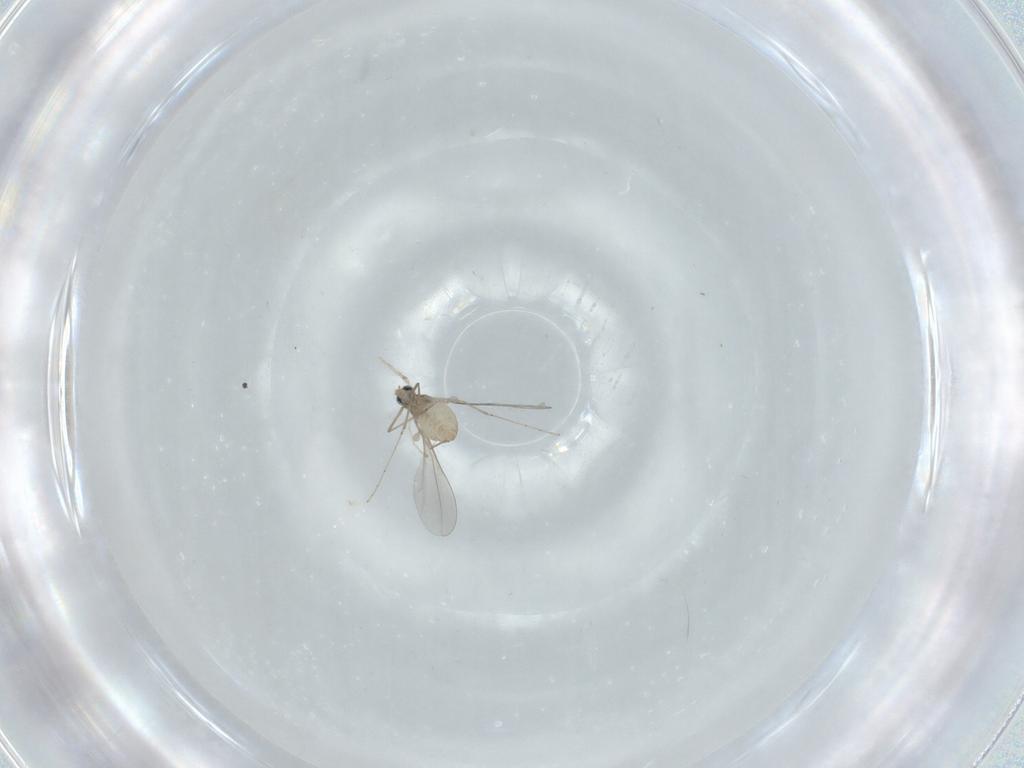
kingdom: Animalia
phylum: Arthropoda
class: Insecta
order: Diptera
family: Cecidomyiidae
